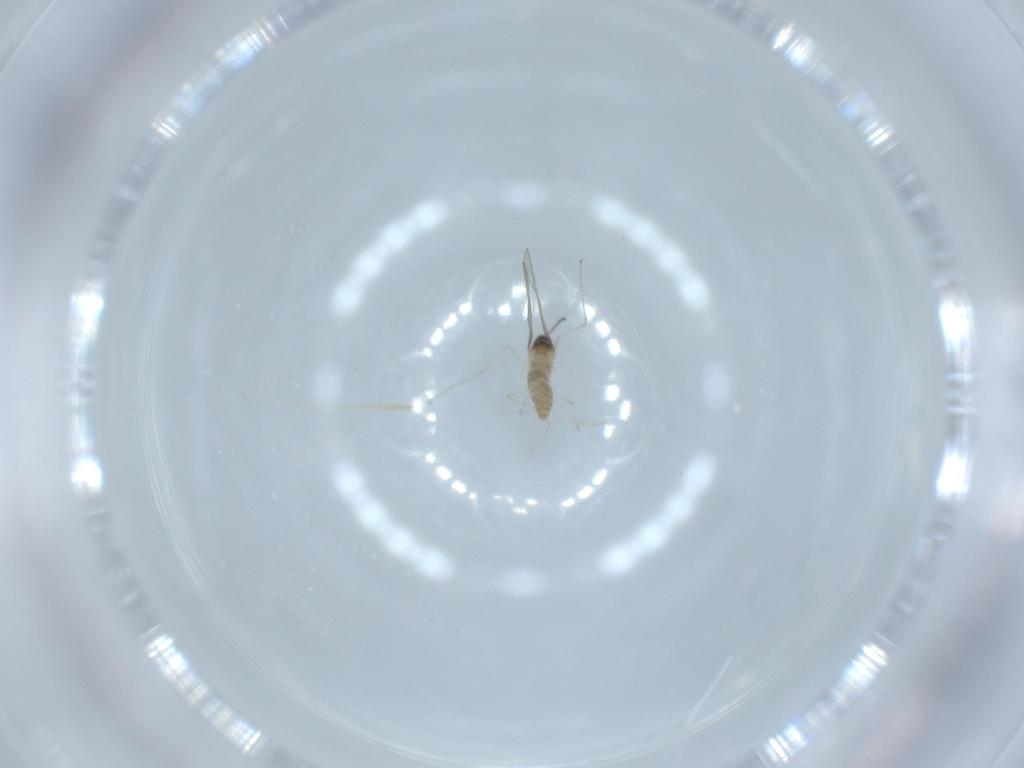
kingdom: Animalia
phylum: Arthropoda
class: Insecta
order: Diptera
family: Cecidomyiidae
